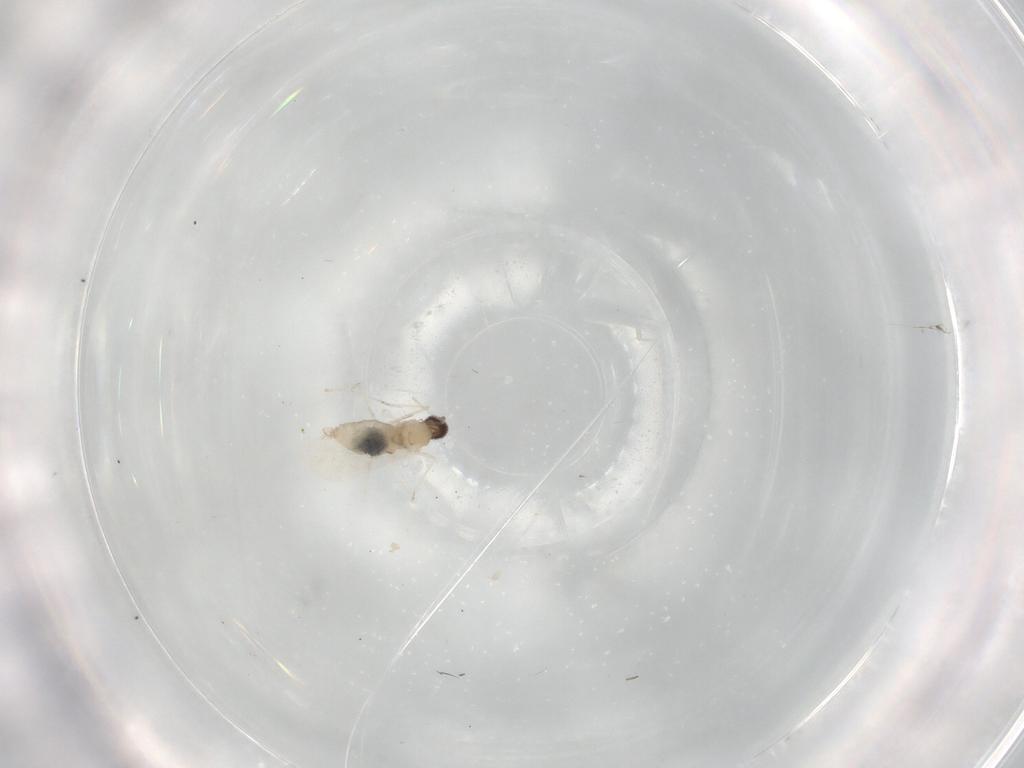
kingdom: Animalia
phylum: Arthropoda
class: Insecta
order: Diptera
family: Cecidomyiidae
